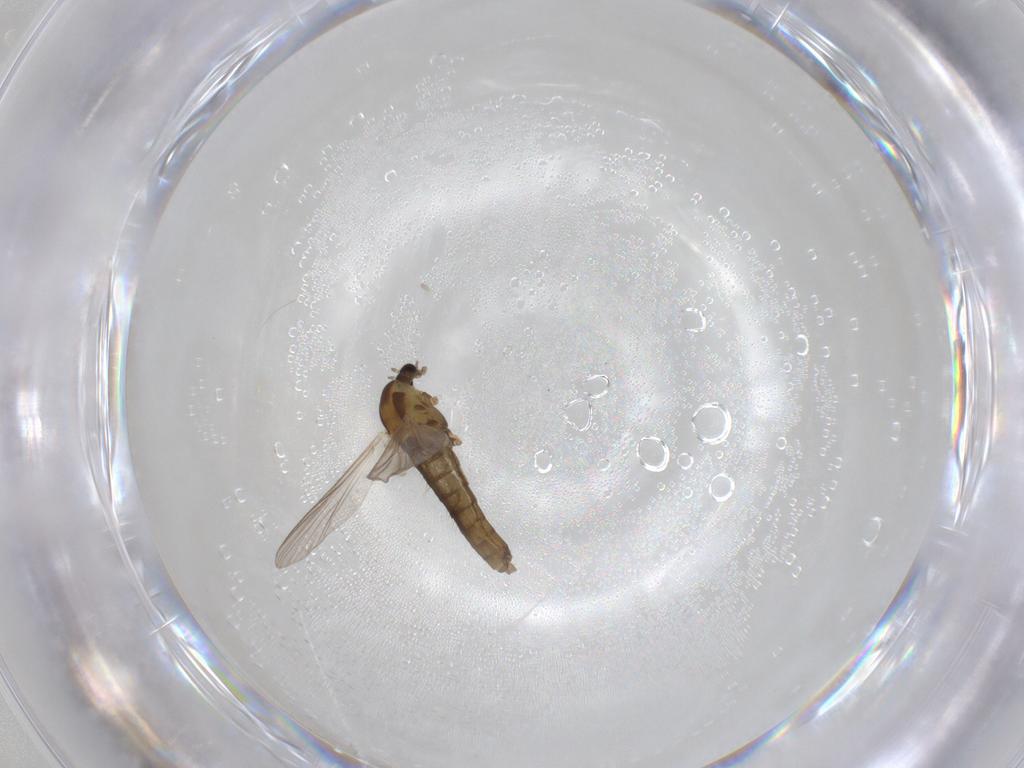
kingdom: Animalia
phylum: Arthropoda
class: Insecta
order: Diptera
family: Chironomidae
